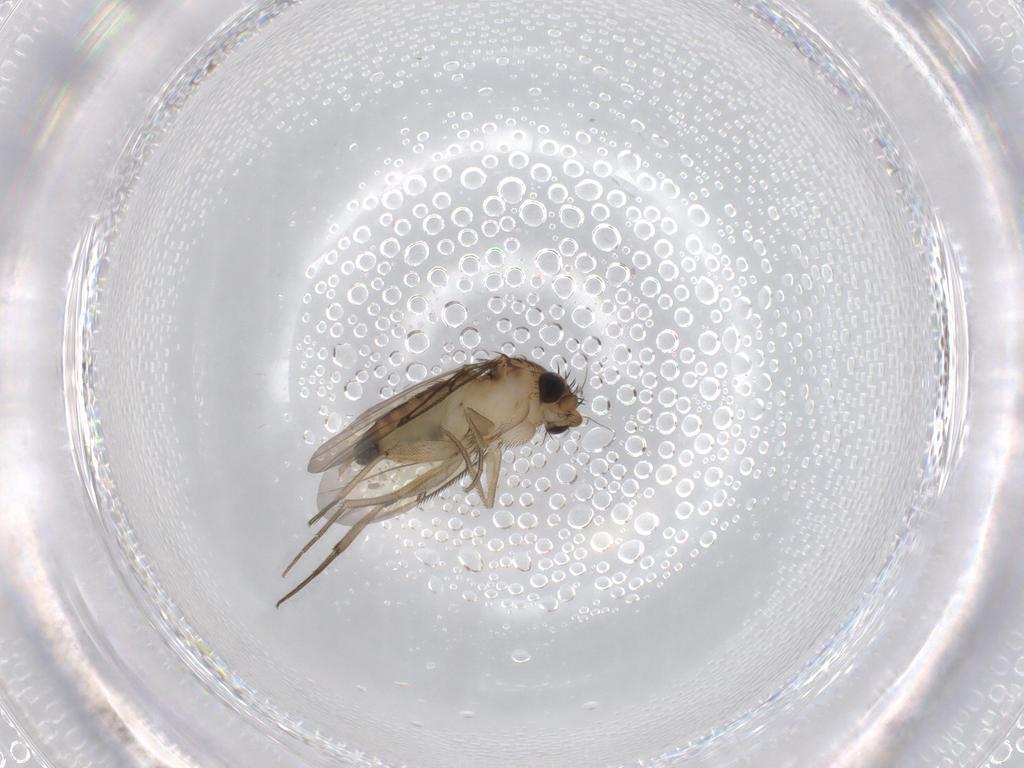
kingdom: Animalia
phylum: Arthropoda
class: Insecta
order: Diptera
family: Phoridae
